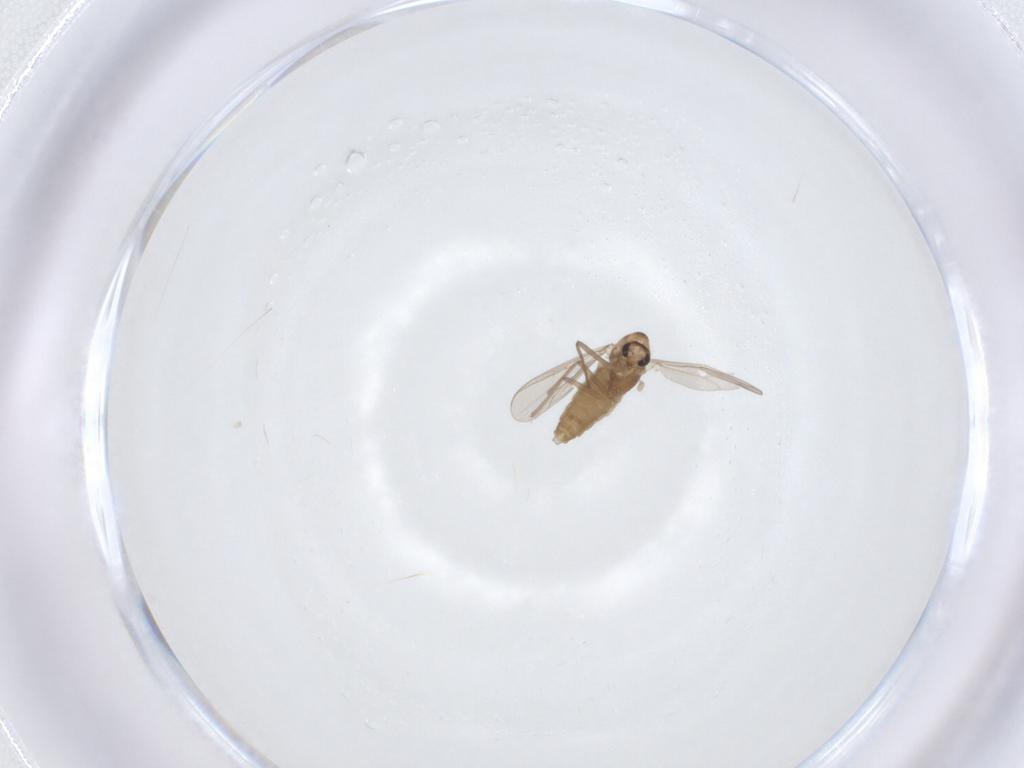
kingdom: Animalia
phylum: Arthropoda
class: Insecta
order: Diptera
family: Chironomidae
